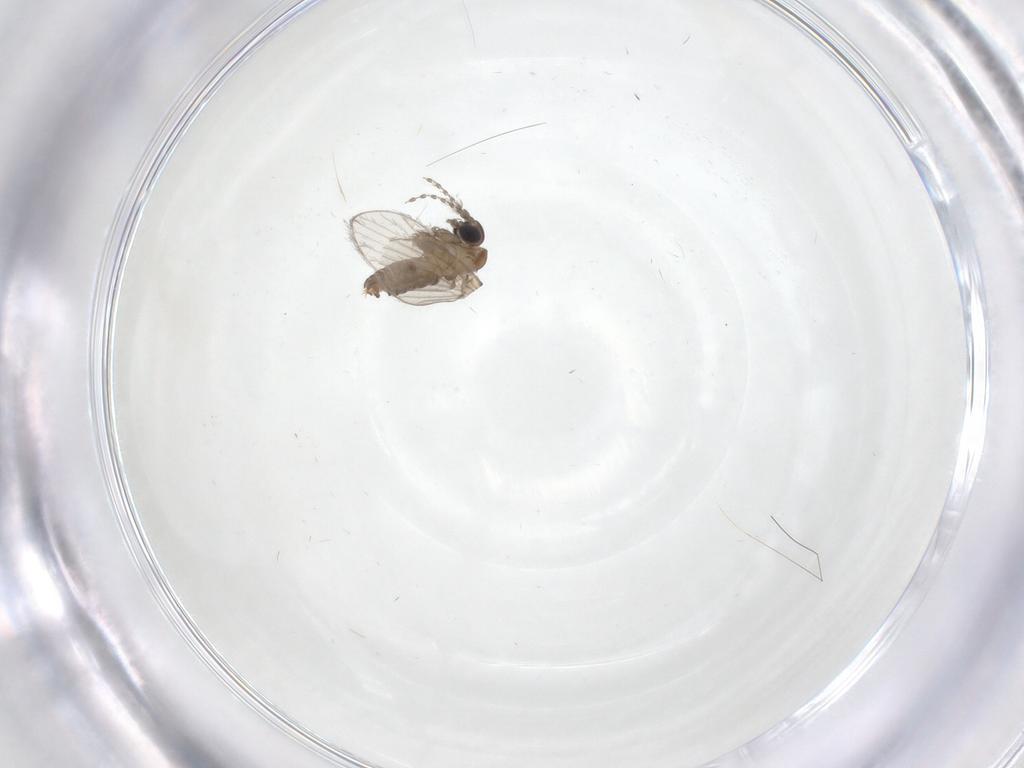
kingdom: Animalia
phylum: Arthropoda
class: Insecta
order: Diptera
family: Psychodidae
